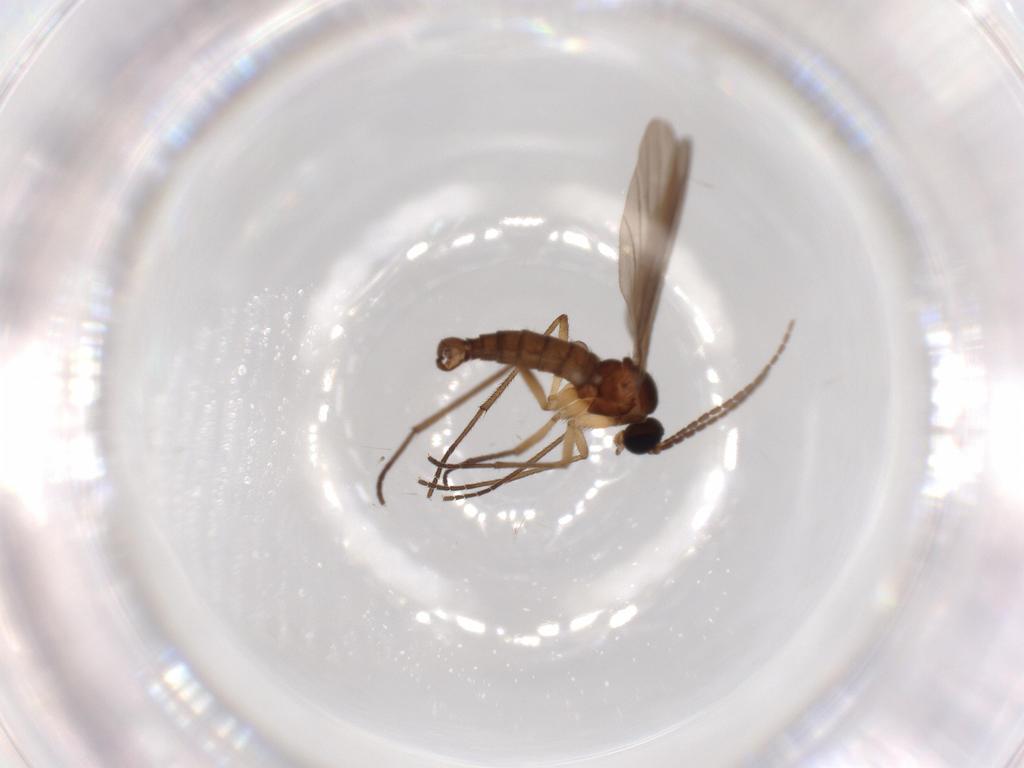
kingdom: Animalia
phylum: Arthropoda
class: Insecta
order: Diptera
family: Sciaridae
